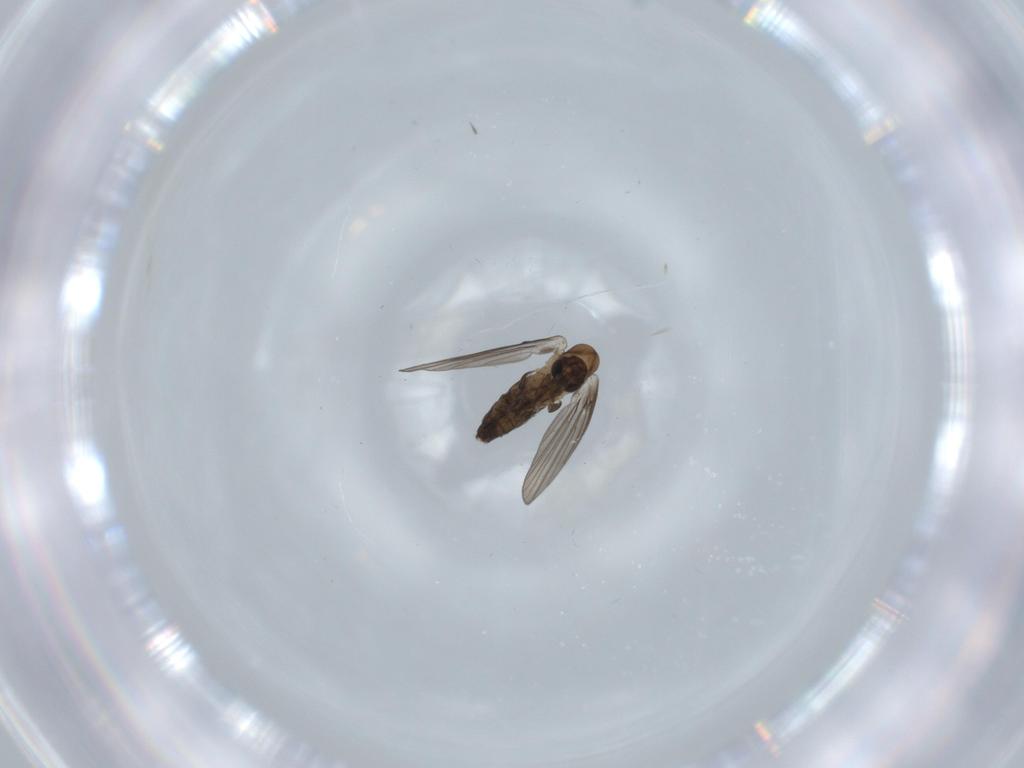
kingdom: Animalia
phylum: Arthropoda
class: Insecta
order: Diptera
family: Psychodidae
